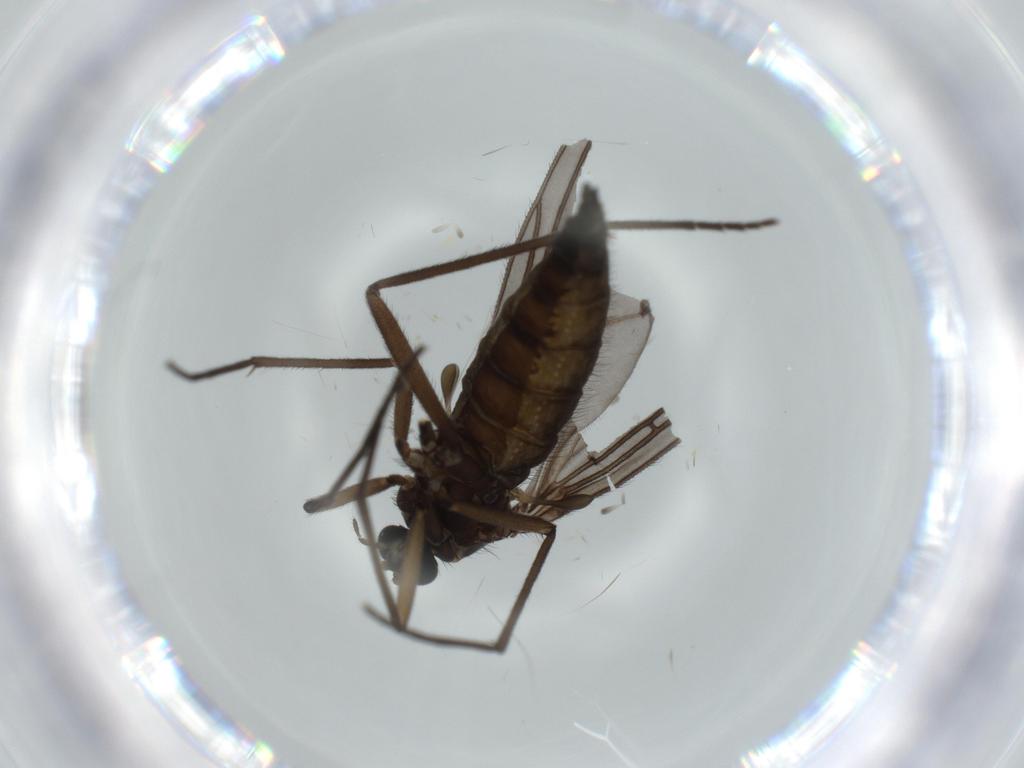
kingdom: Animalia
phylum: Arthropoda
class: Insecta
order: Diptera
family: Sciaridae
